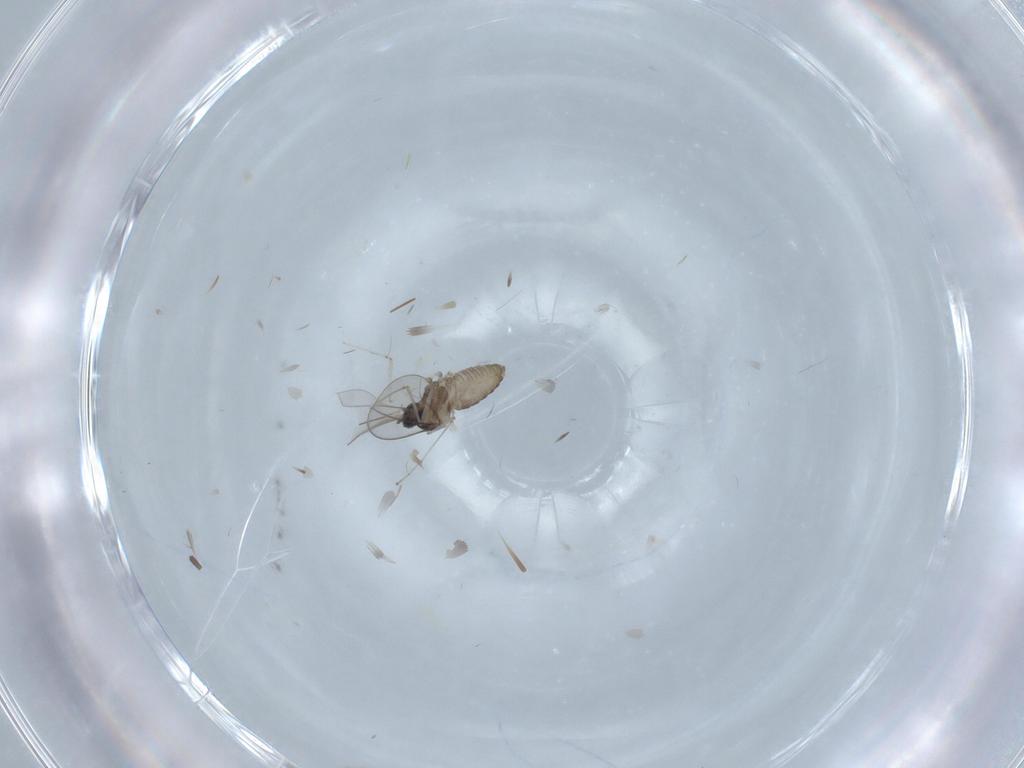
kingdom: Animalia
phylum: Arthropoda
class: Insecta
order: Diptera
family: Cecidomyiidae
